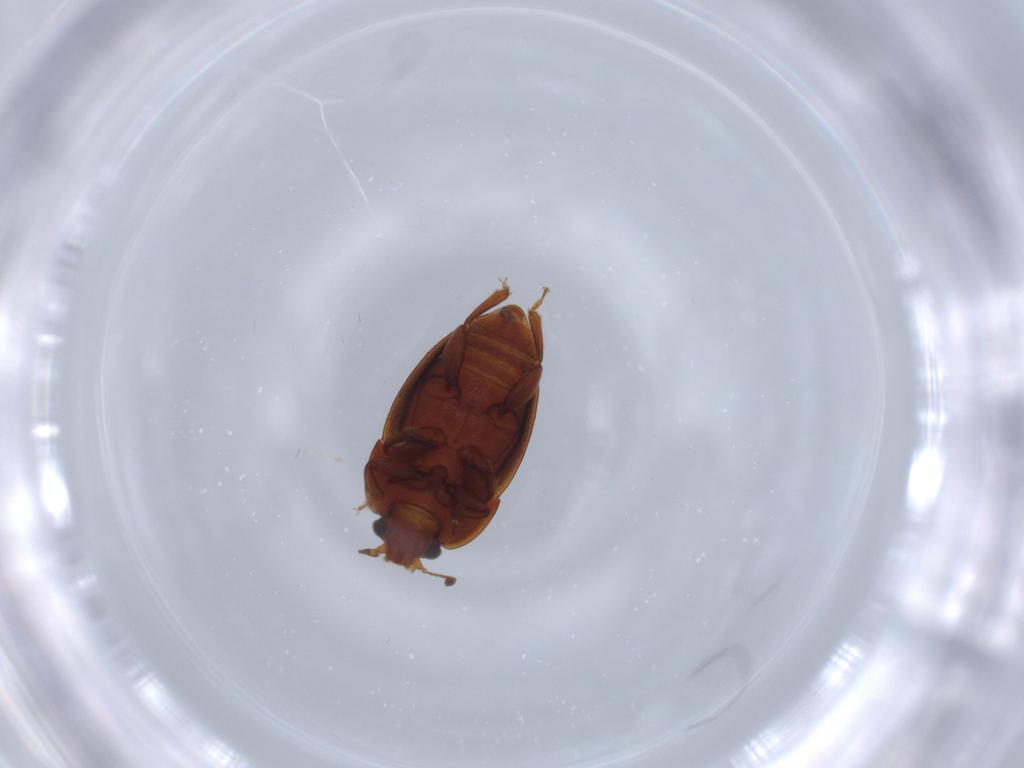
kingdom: Animalia
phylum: Arthropoda
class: Insecta
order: Coleoptera
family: Nitidulidae
